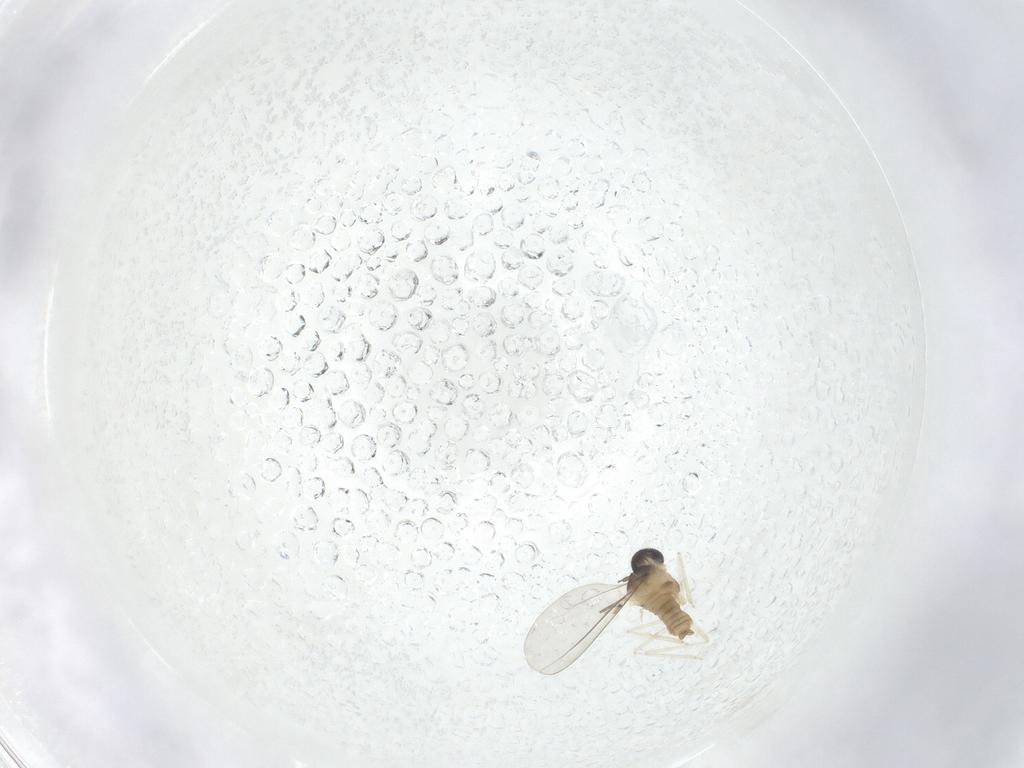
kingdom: Animalia
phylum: Arthropoda
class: Insecta
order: Diptera
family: Cecidomyiidae
